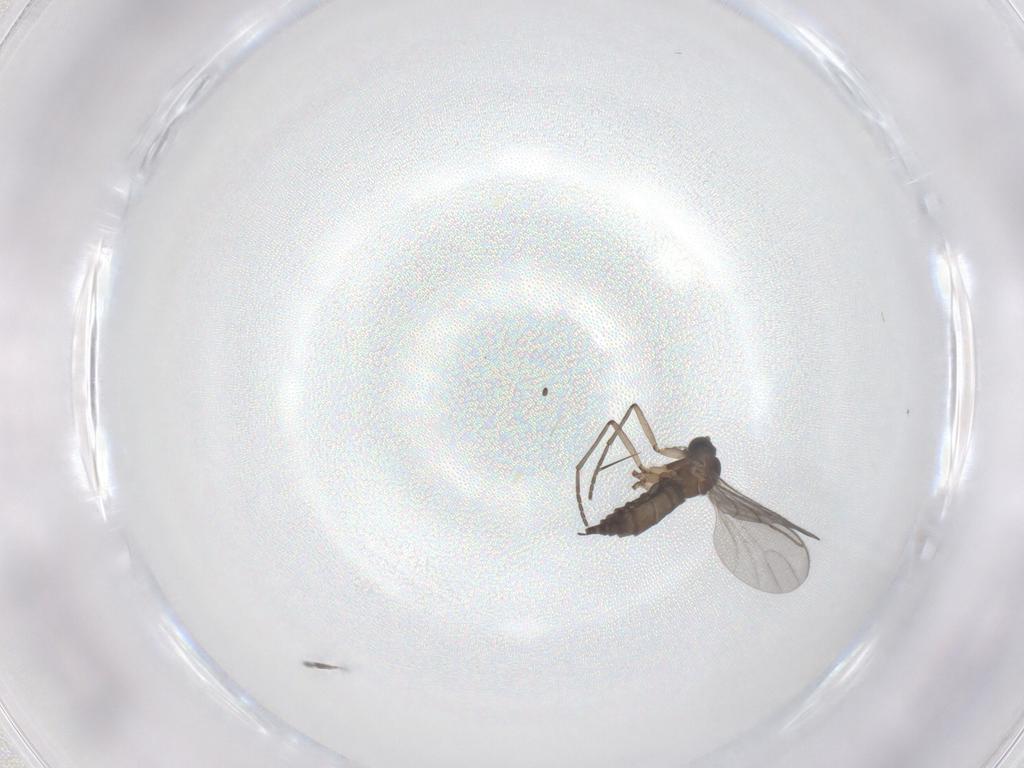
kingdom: Animalia
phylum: Arthropoda
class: Insecta
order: Diptera
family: Sciaridae
